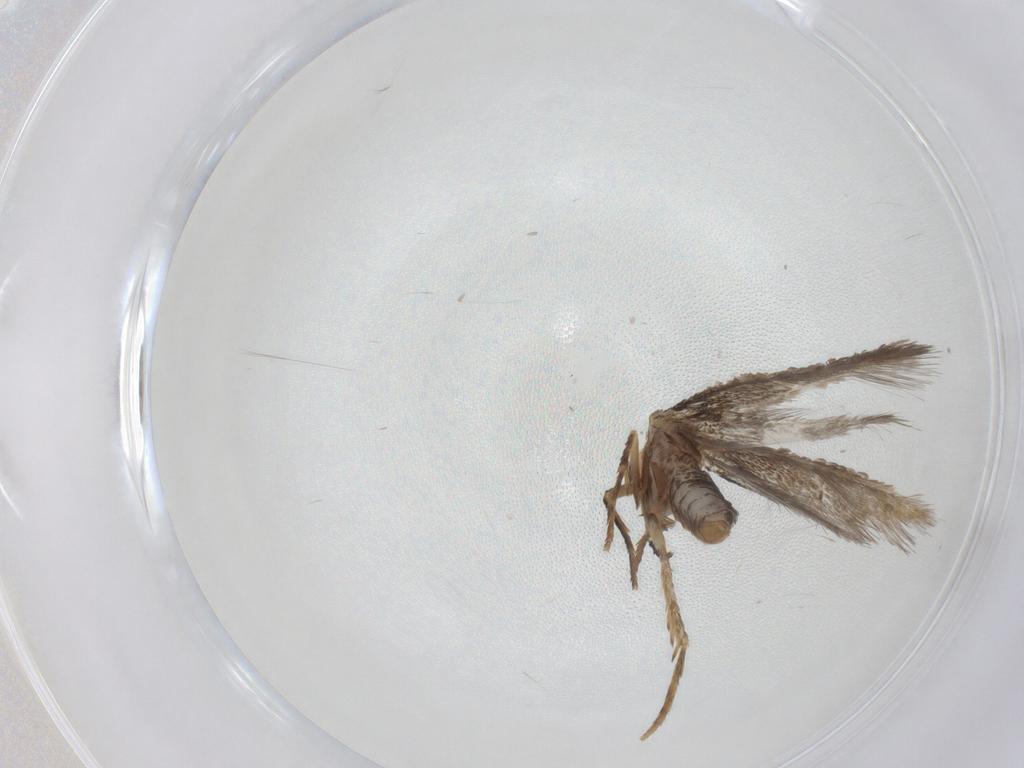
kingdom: Animalia
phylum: Arthropoda
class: Insecta
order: Lepidoptera
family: Nepticulidae
